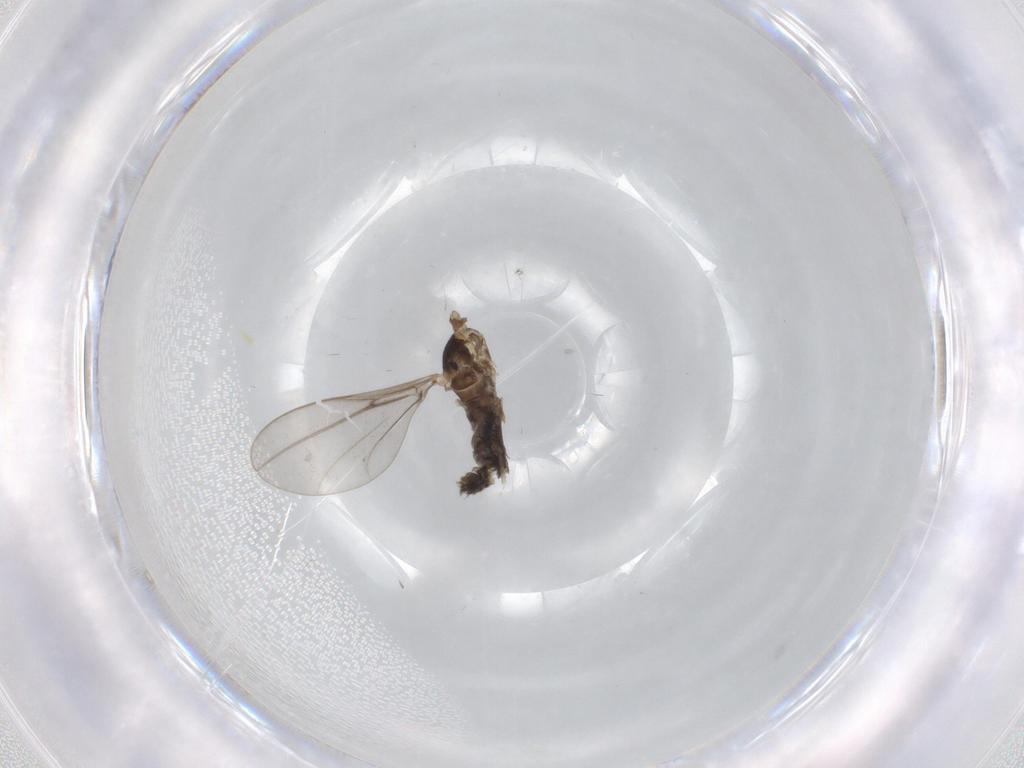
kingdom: Animalia
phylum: Arthropoda
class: Insecta
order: Diptera
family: Cecidomyiidae
